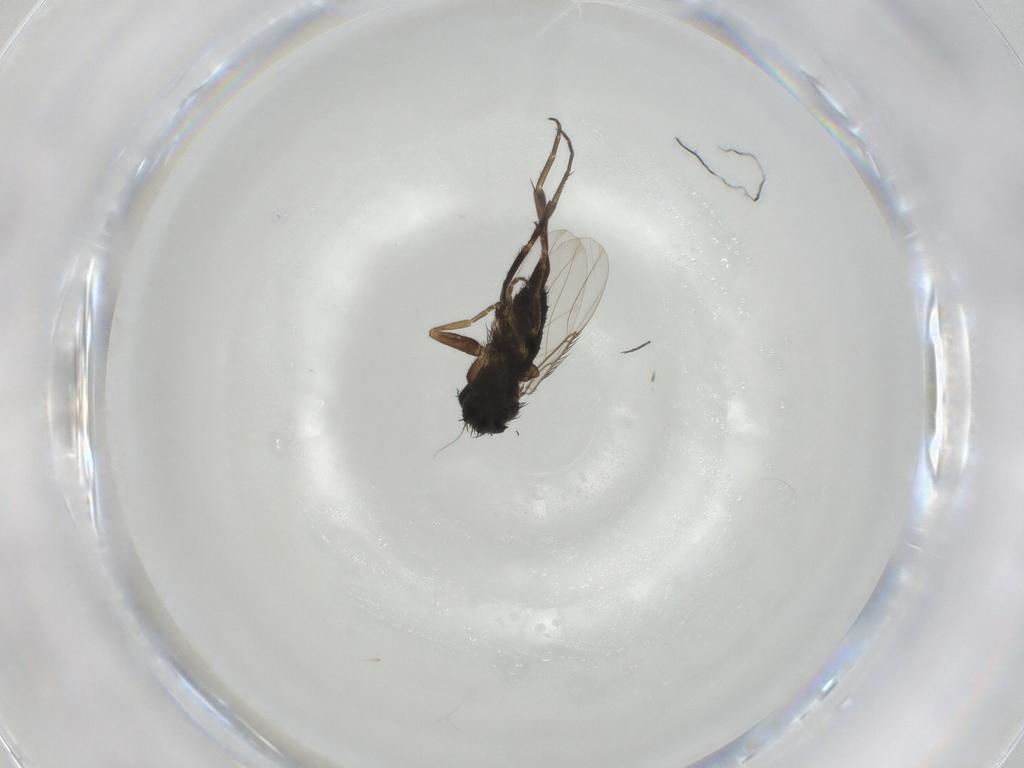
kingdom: Animalia
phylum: Arthropoda
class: Insecta
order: Diptera
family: Phoridae
